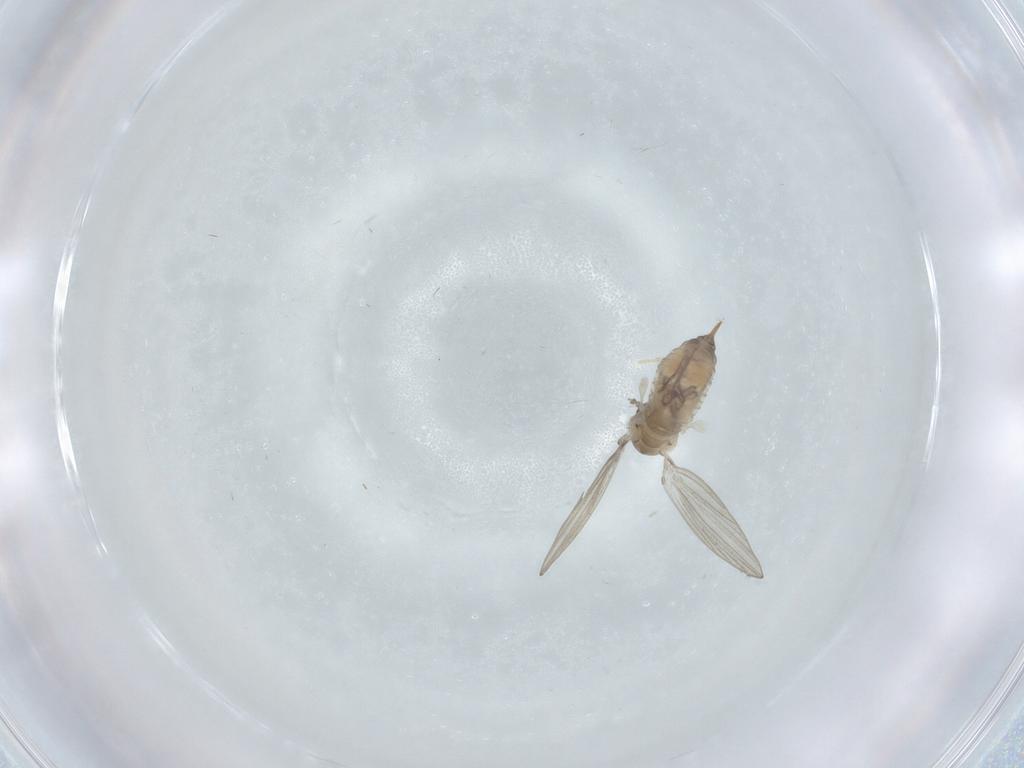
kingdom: Animalia
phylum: Arthropoda
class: Insecta
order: Diptera
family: Psychodidae
